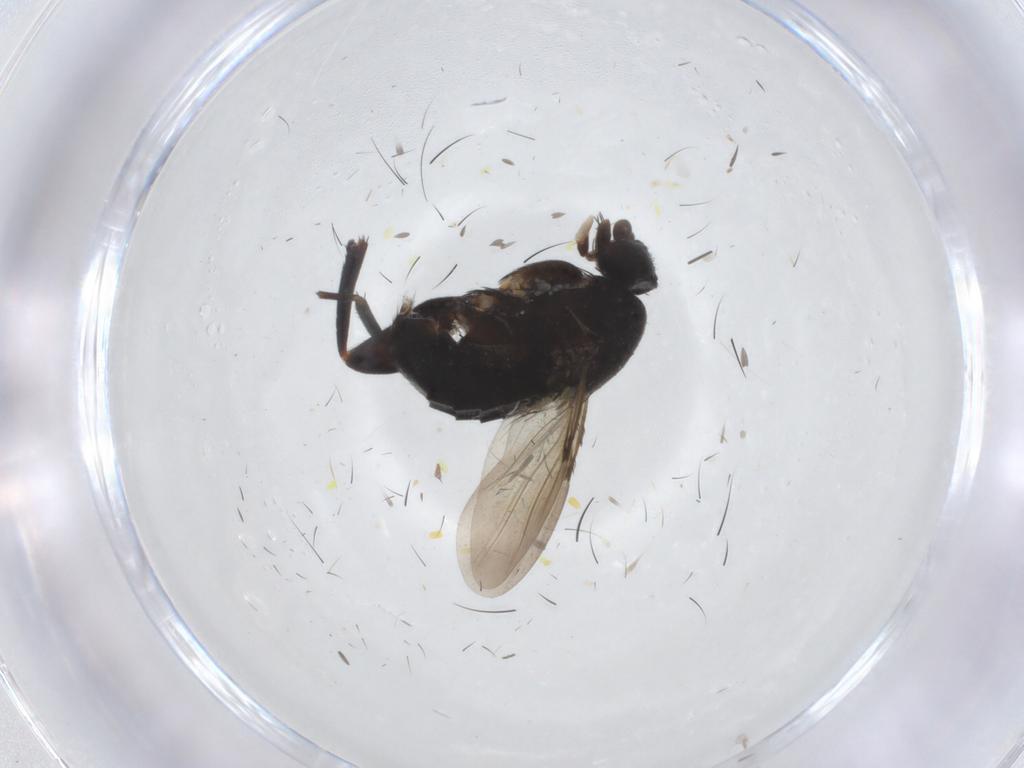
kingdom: Animalia
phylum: Arthropoda
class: Insecta
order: Diptera
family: Phoridae
